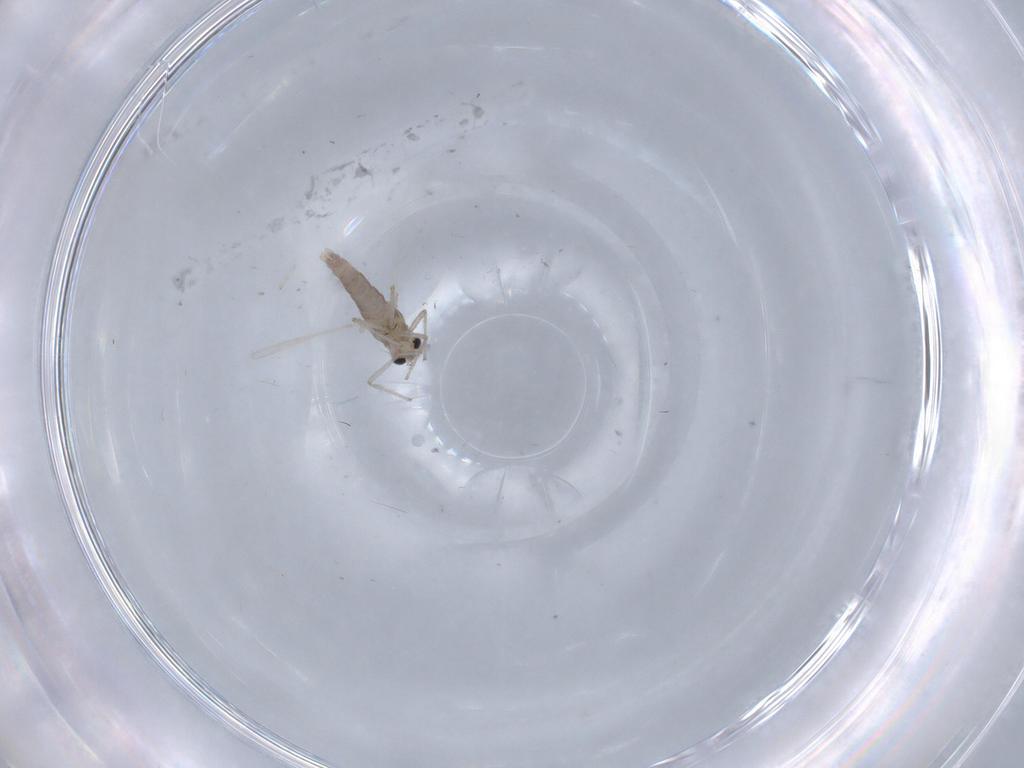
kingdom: Animalia
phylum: Arthropoda
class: Insecta
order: Diptera
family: Chironomidae
